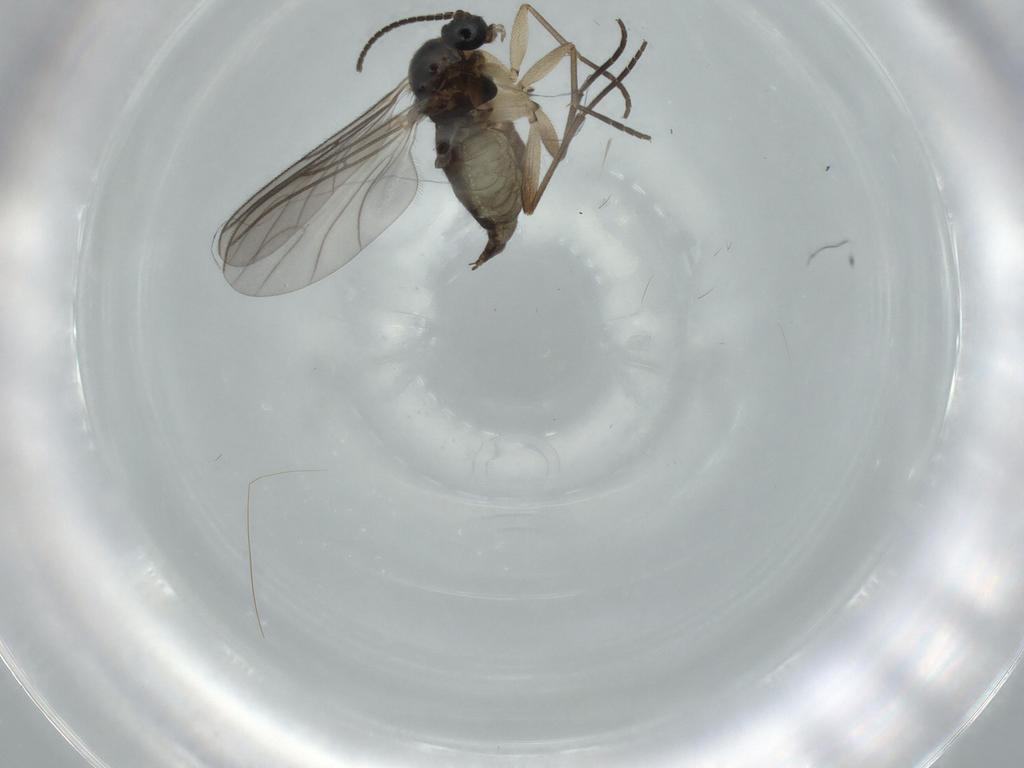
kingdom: Animalia
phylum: Arthropoda
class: Insecta
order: Diptera
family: Sciaridae
